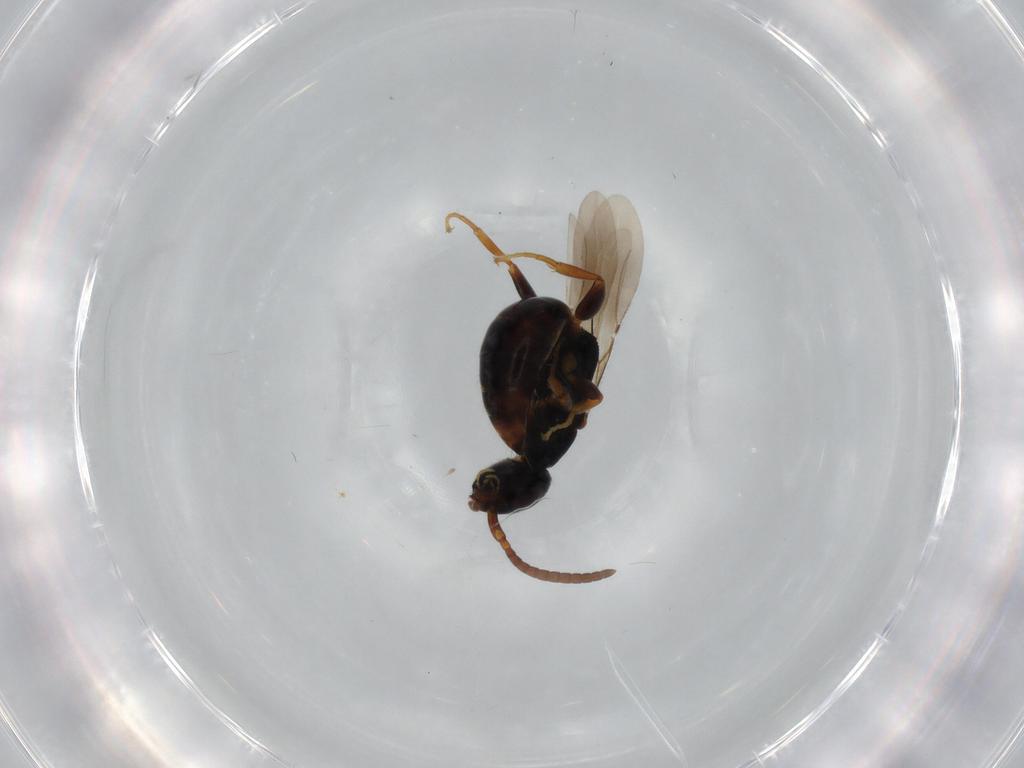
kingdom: Animalia
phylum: Arthropoda
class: Insecta
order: Hymenoptera
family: Bethylidae
